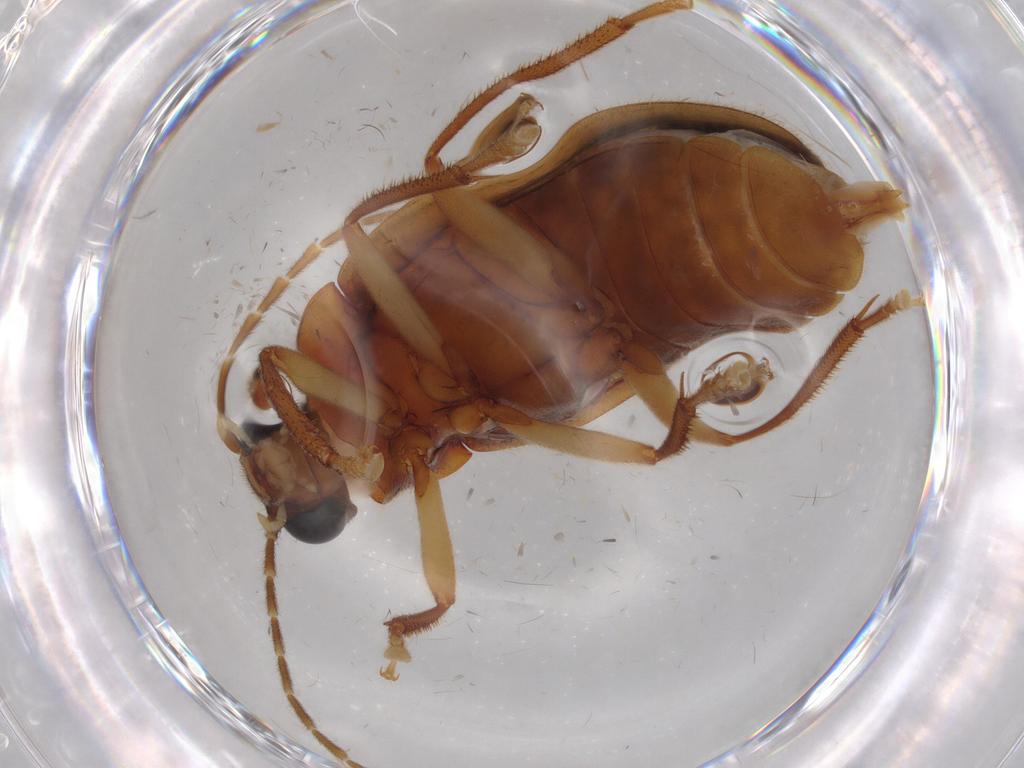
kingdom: Animalia
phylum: Arthropoda
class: Insecta
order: Coleoptera
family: Ptilodactylidae
